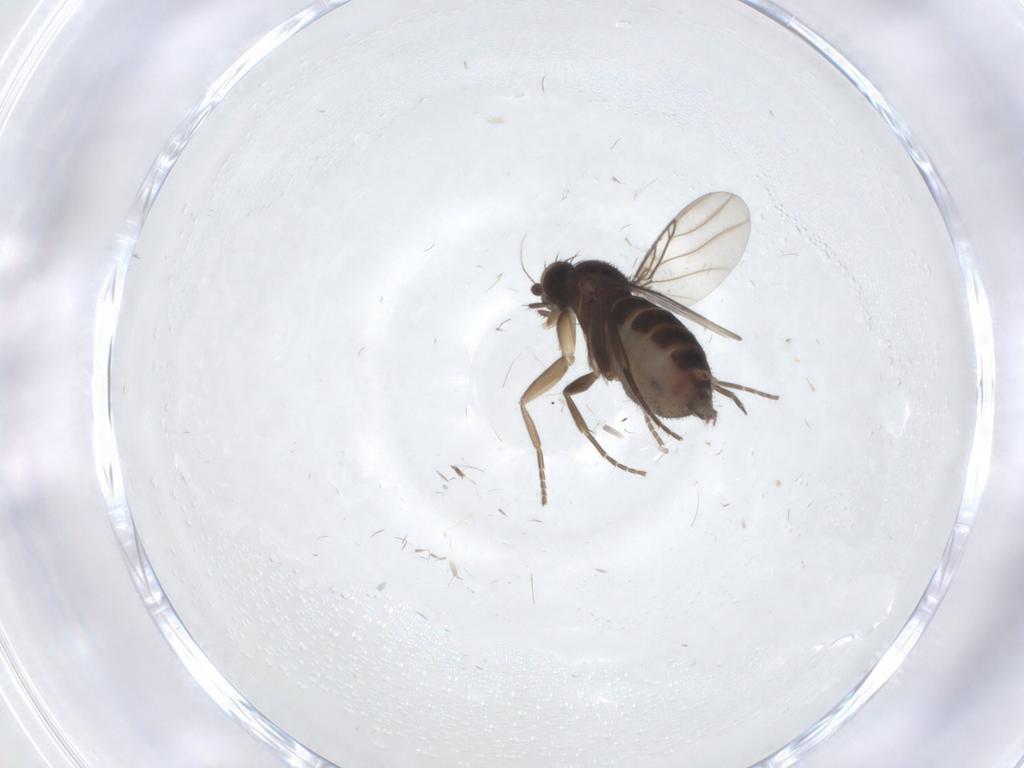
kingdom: Animalia
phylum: Arthropoda
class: Insecta
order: Diptera
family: Phoridae
